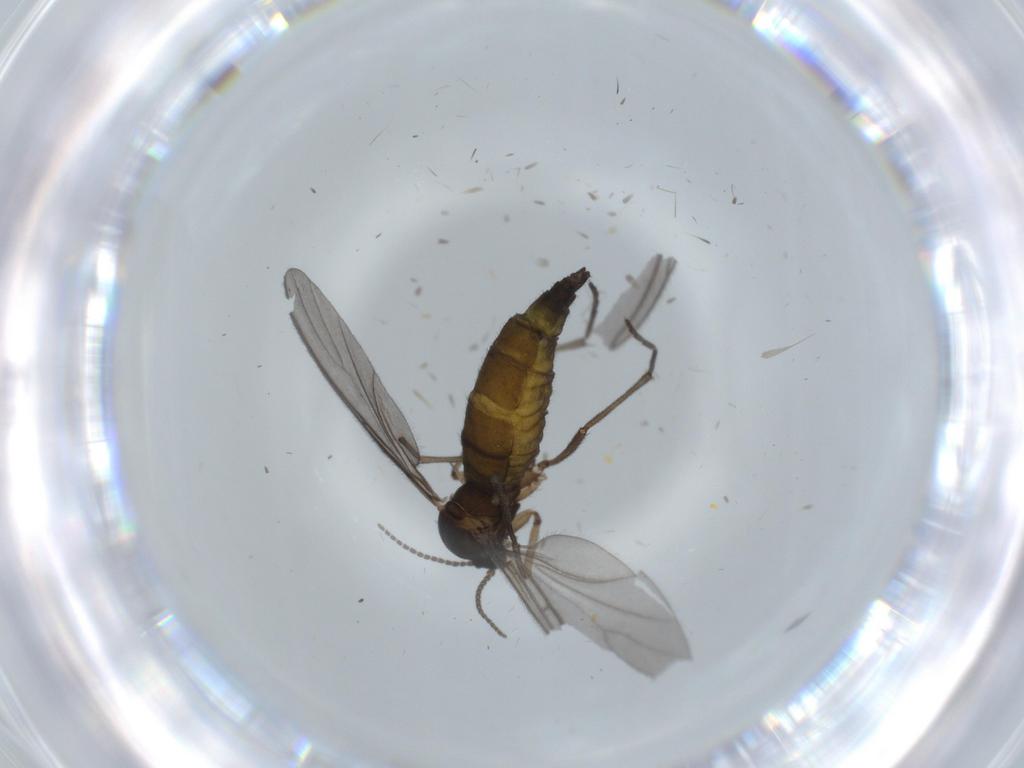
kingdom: Animalia
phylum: Arthropoda
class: Insecta
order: Diptera
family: Sciaridae
